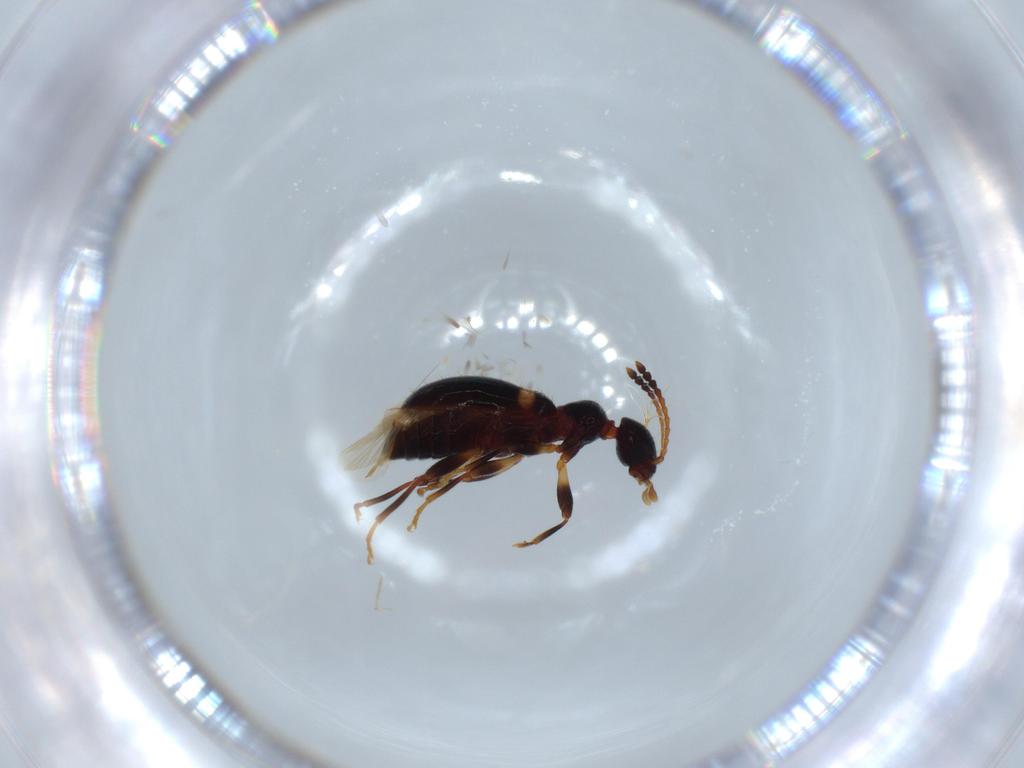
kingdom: Animalia
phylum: Arthropoda
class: Insecta
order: Coleoptera
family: Anthicidae
